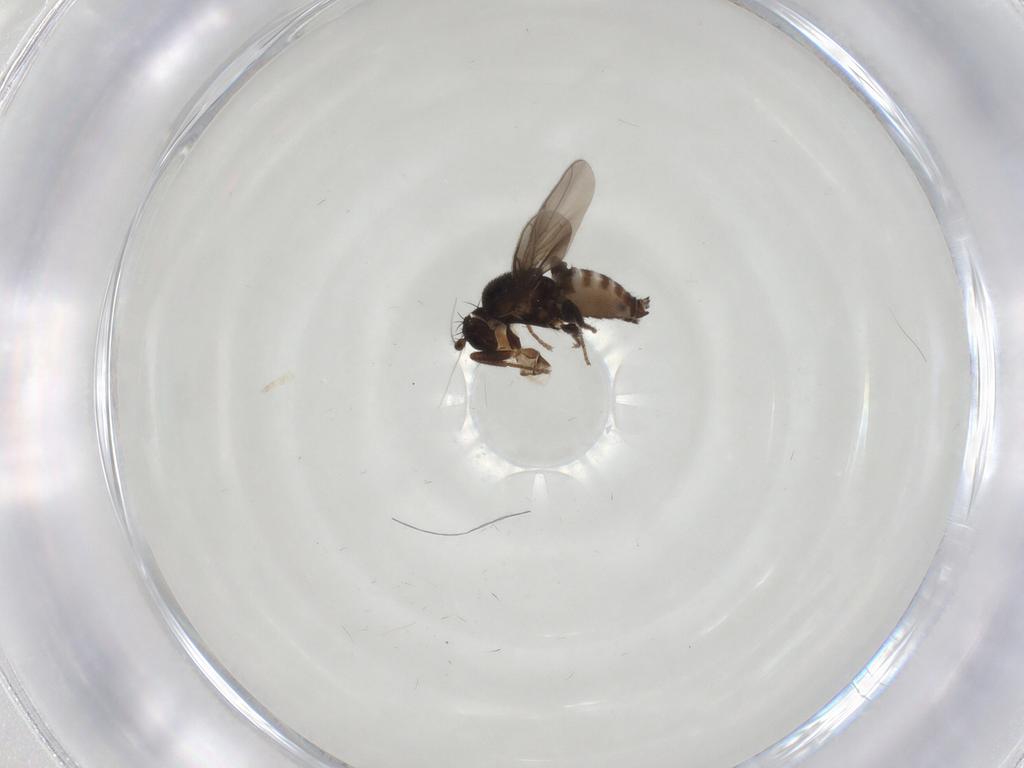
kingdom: Animalia
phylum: Arthropoda
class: Insecta
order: Diptera
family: Sphaeroceridae
